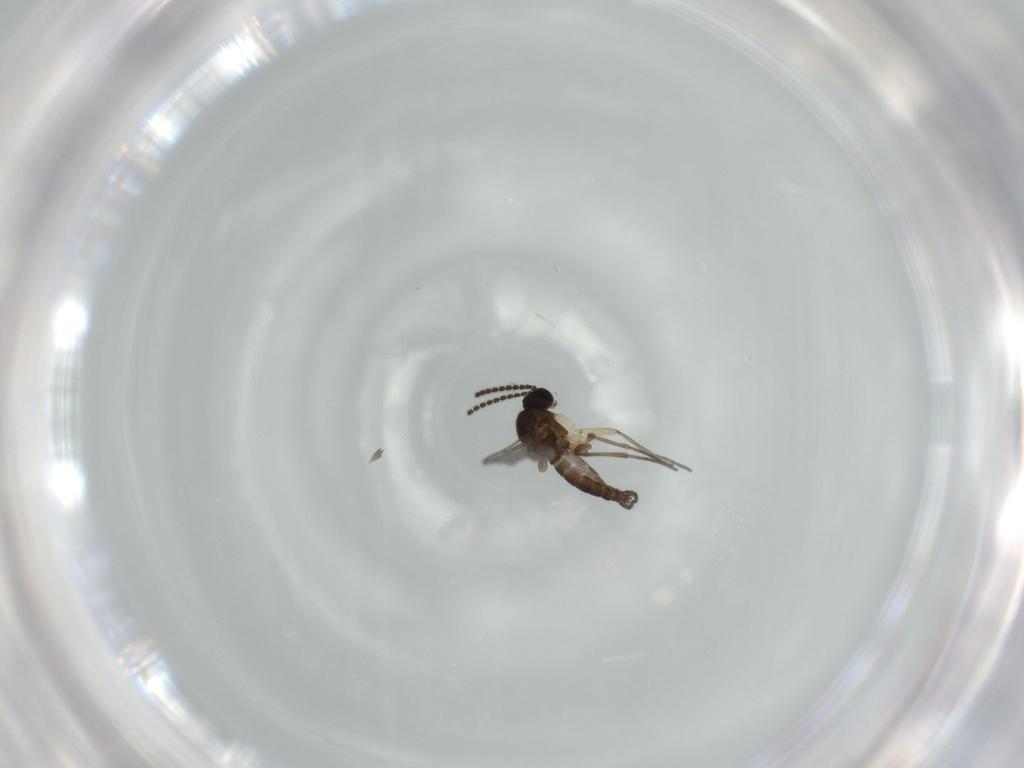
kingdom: Animalia
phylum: Arthropoda
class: Insecta
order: Diptera
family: Sciaridae
